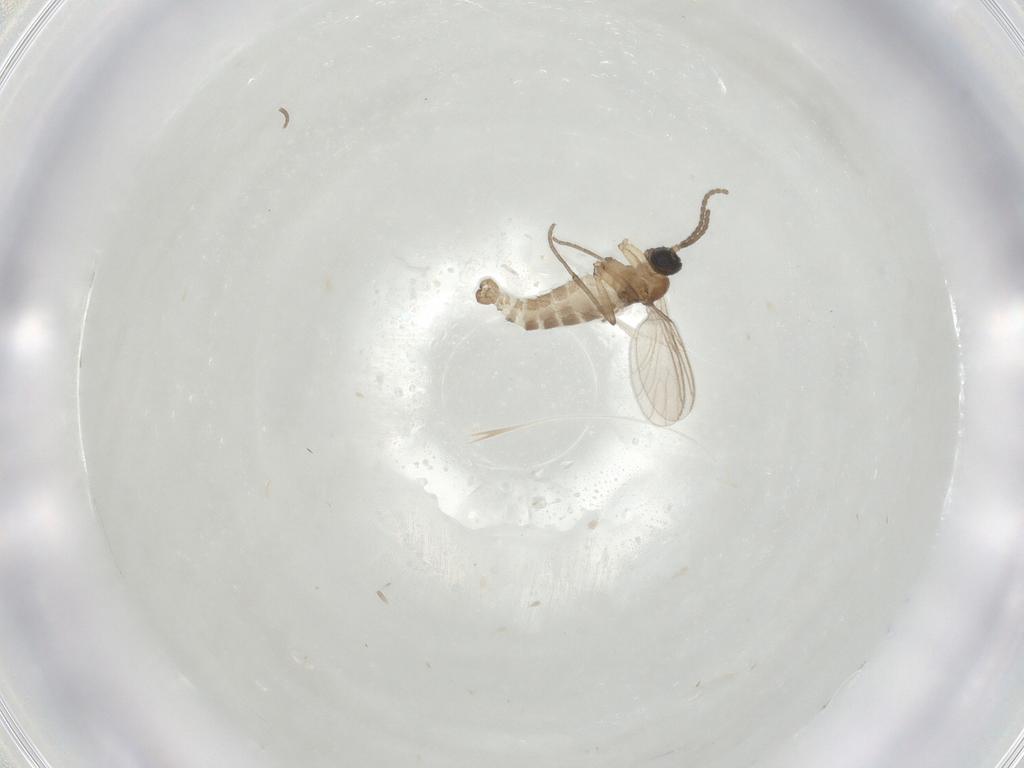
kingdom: Animalia
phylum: Arthropoda
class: Insecta
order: Diptera
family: Sciaridae
